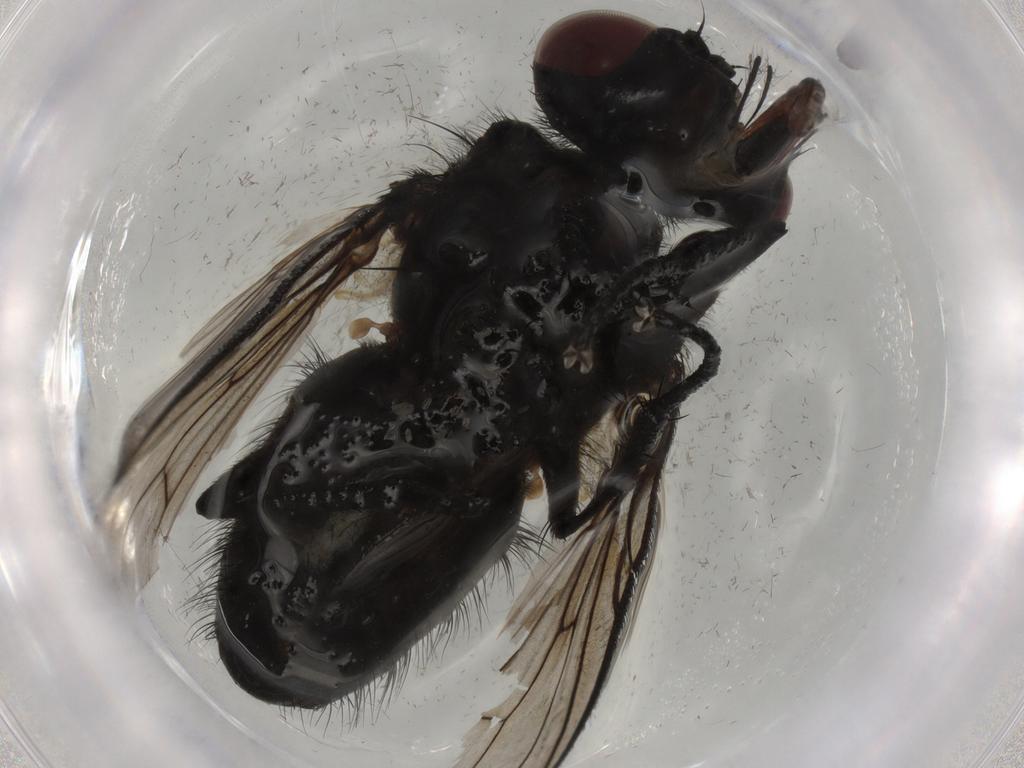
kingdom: Animalia
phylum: Arthropoda
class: Insecta
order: Diptera
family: Muscidae
